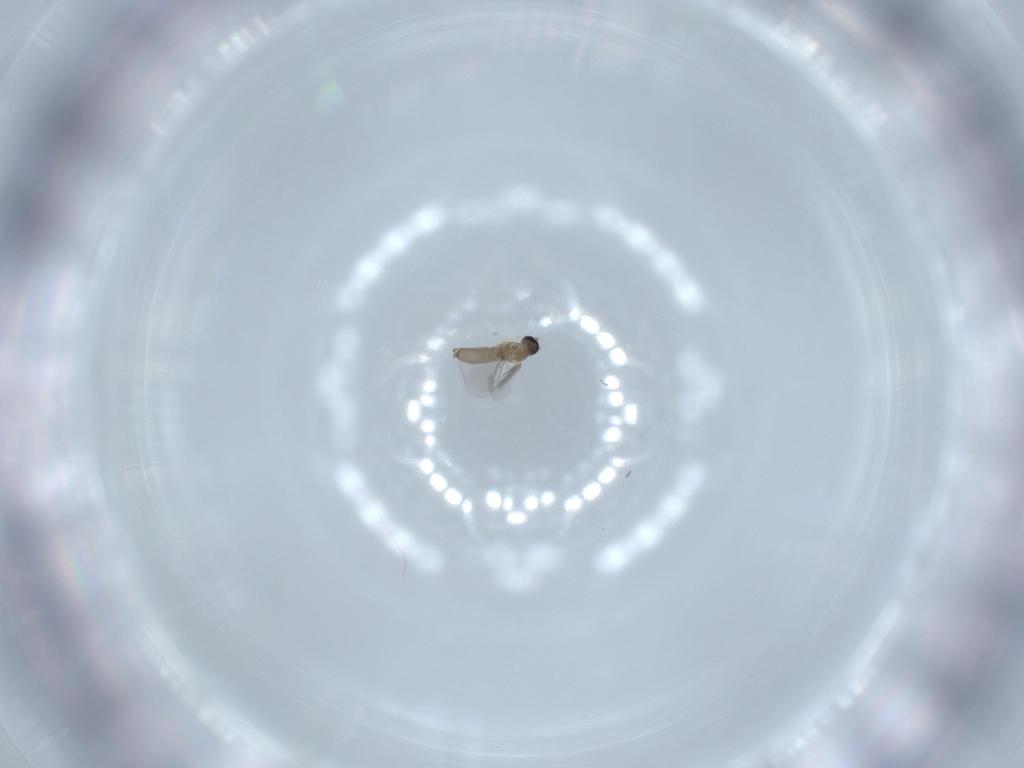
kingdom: Animalia
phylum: Arthropoda
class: Insecta
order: Diptera
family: Cecidomyiidae
